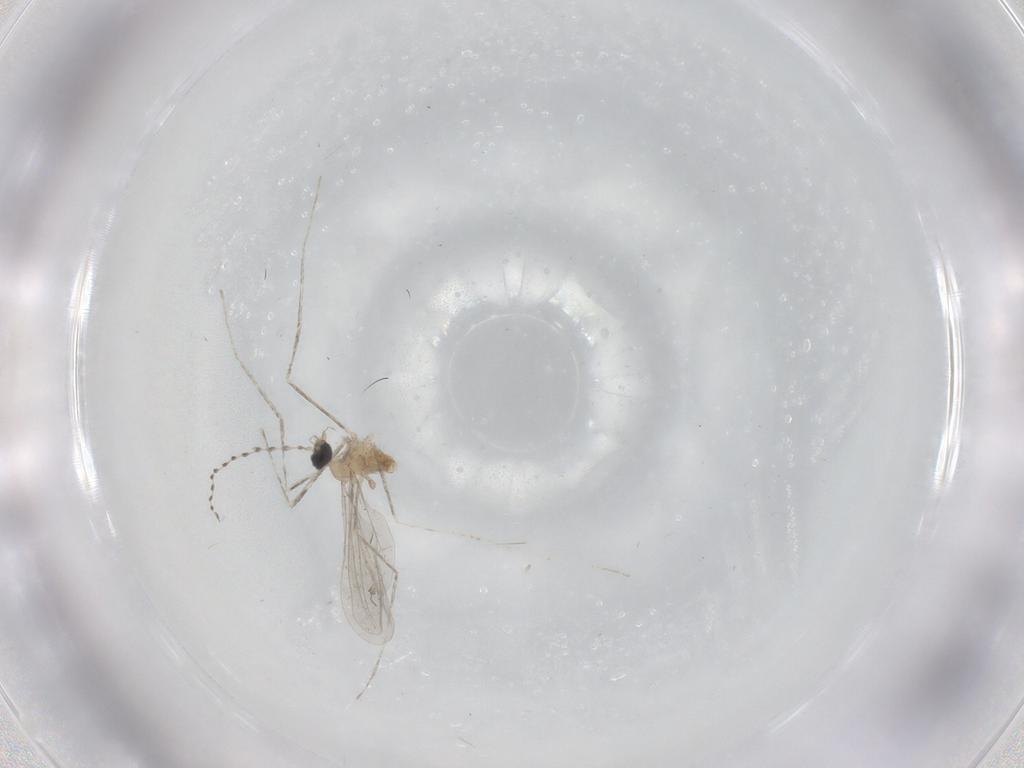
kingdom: Animalia
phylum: Arthropoda
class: Insecta
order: Diptera
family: Cecidomyiidae
